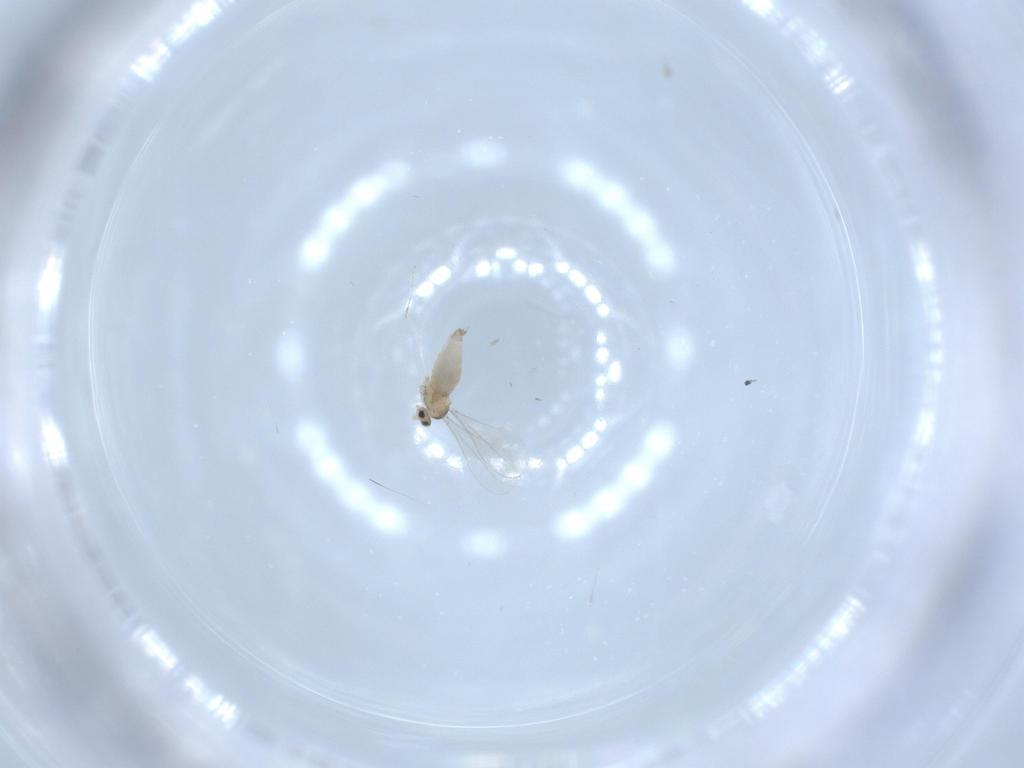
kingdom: Animalia
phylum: Arthropoda
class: Insecta
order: Diptera
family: Cecidomyiidae
